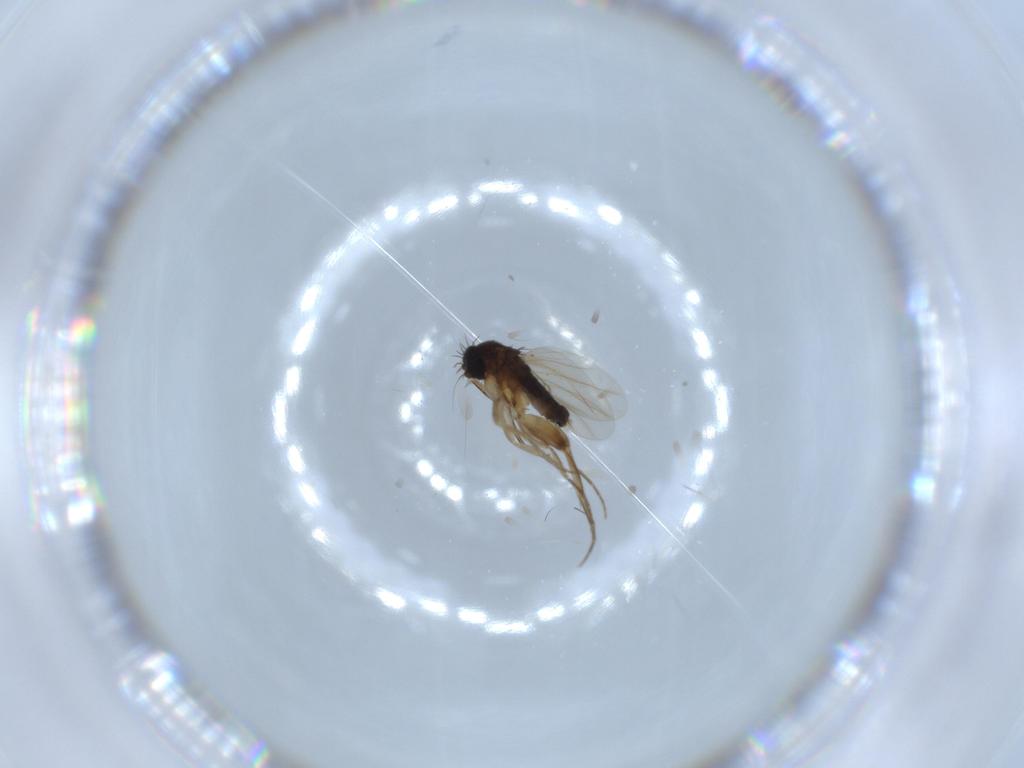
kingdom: Animalia
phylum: Arthropoda
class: Insecta
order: Diptera
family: Phoridae
